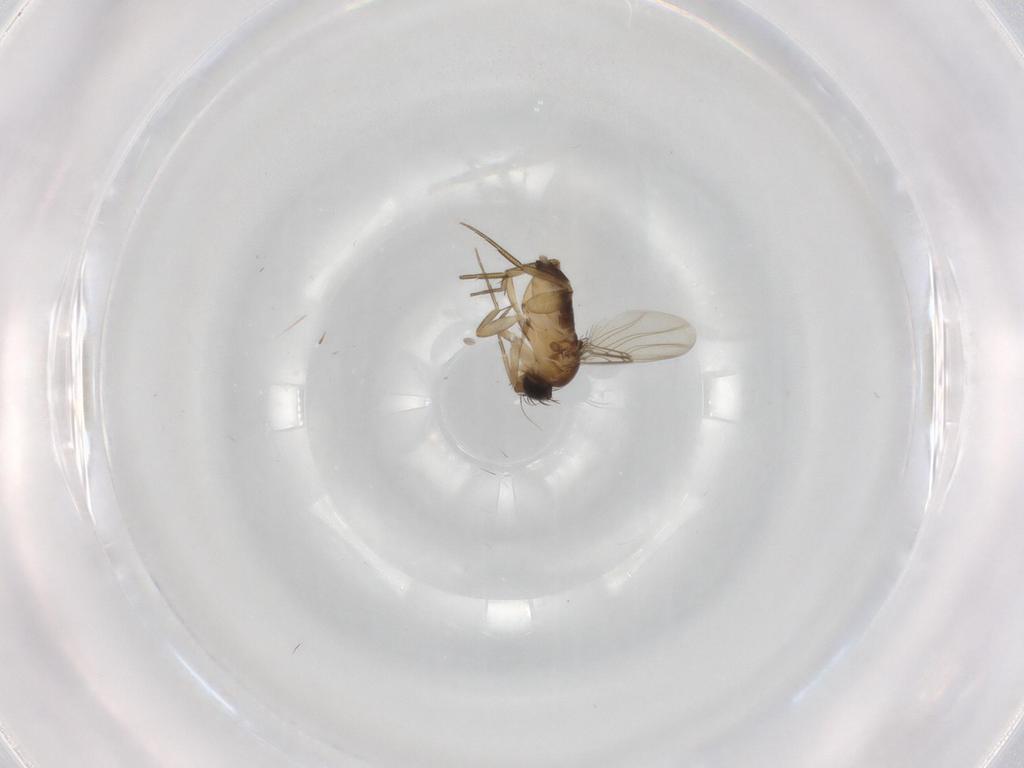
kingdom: Animalia
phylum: Arthropoda
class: Insecta
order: Diptera
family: Phoridae
